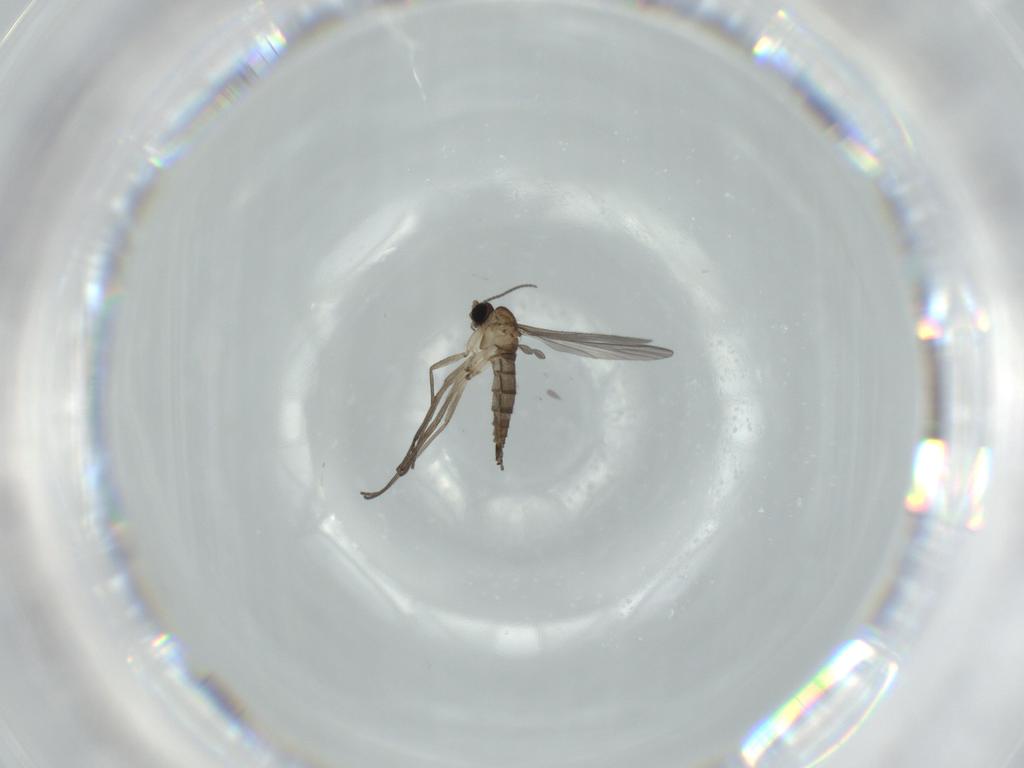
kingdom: Animalia
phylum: Arthropoda
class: Insecta
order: Diptera
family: Sciaridae
